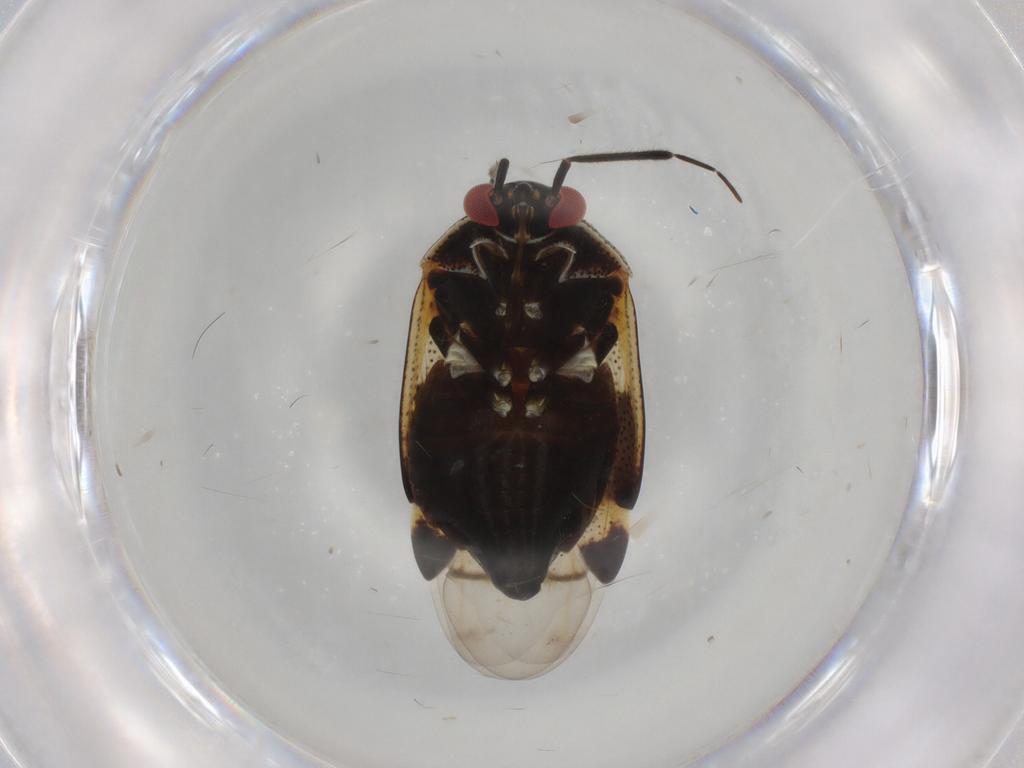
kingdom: Animalia
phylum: Arthropoda
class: Insecta
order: Hemiptera
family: Miridae
